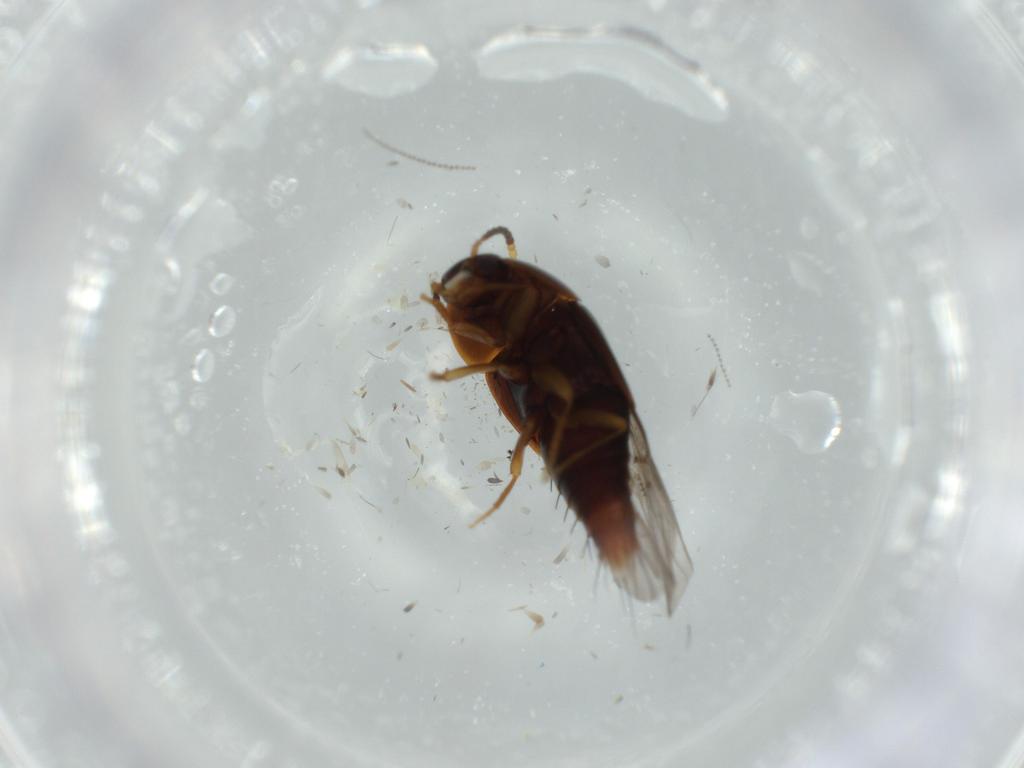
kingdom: Animalia
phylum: Arthropoda
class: Insecta
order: Coleoptera
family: Elateridae
